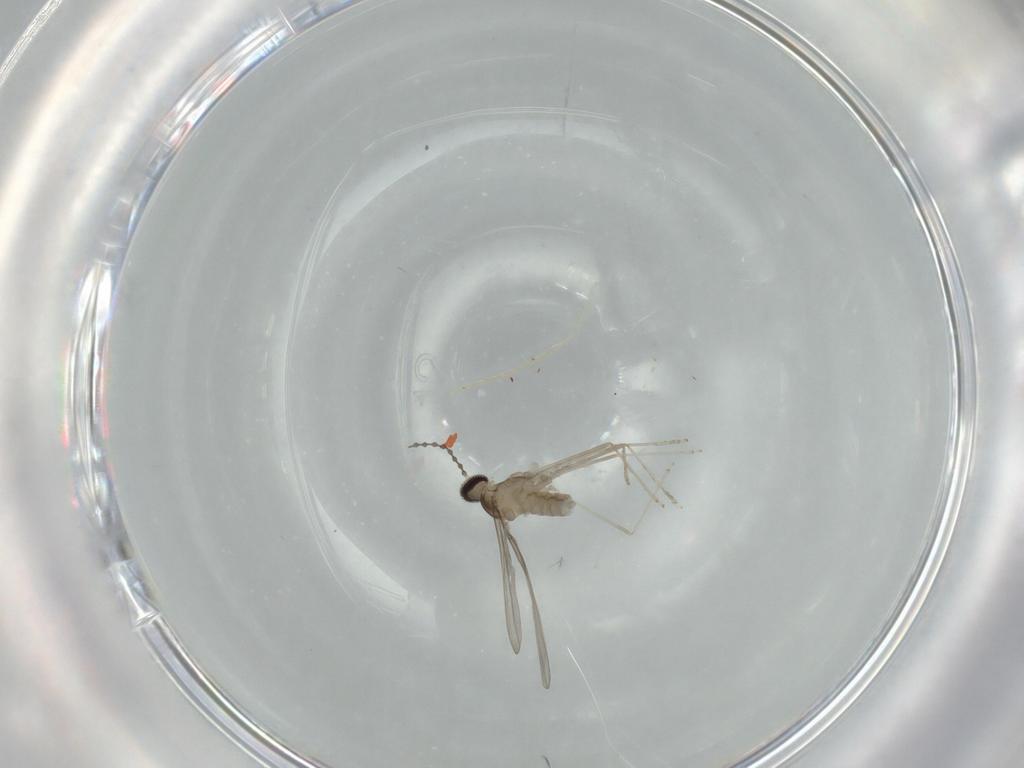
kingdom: Animalia
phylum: Arthropoda
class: Insecta
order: Diptera
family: Cecidomyiidae
